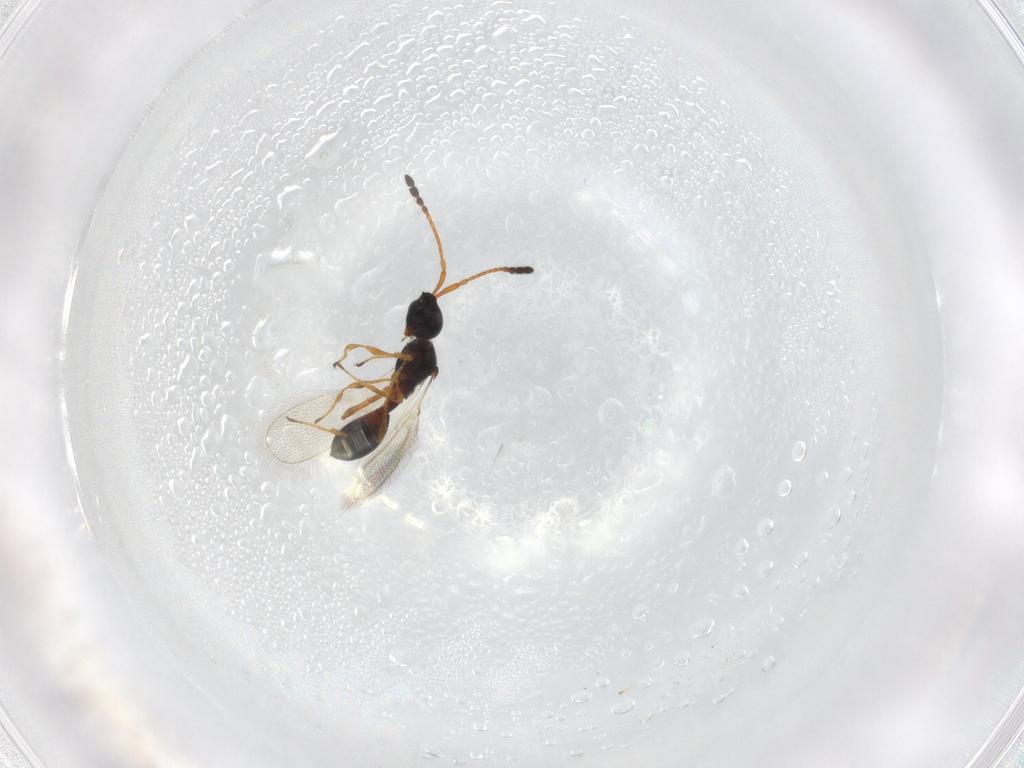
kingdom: Animalia
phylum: Arthropoda
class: Insecta
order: Hymenoptera
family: Diapriidae
